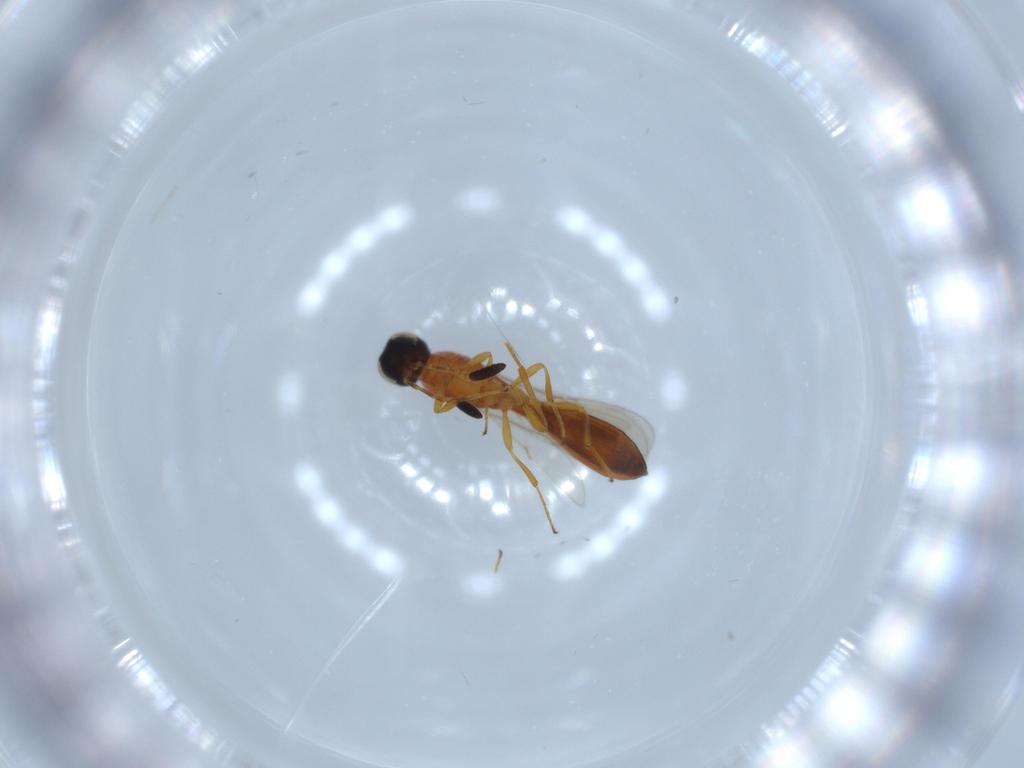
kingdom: Animalia
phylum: Arthropoda
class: Insecta
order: Hymenoptera
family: Scelionidae
